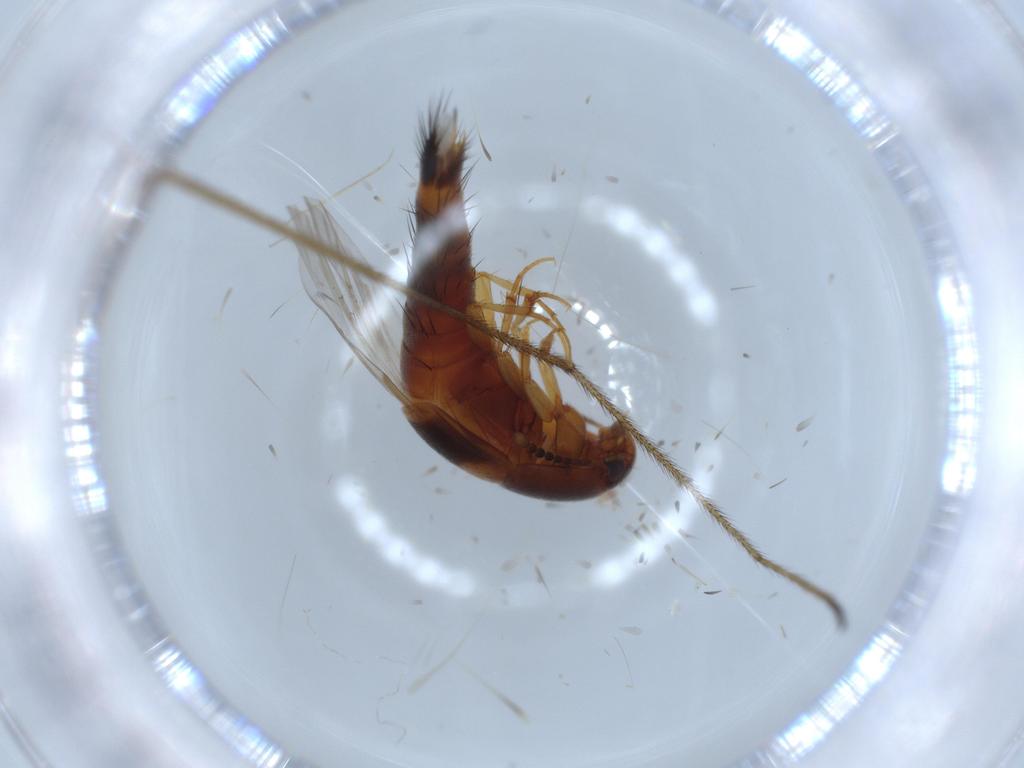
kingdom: Animalia
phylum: Arthropoda
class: Insecta
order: Coleoptera
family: Staphylinidae
